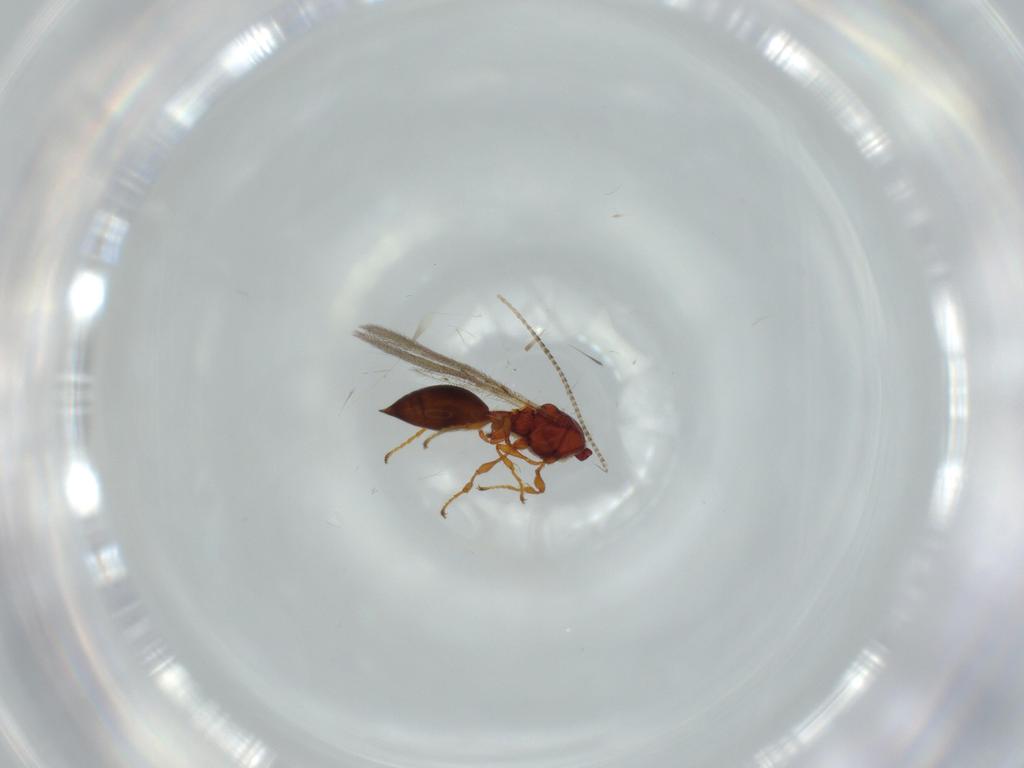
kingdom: Animalia
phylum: Arthropoda
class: Insecta
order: Hymenoptera
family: Diapriidae
